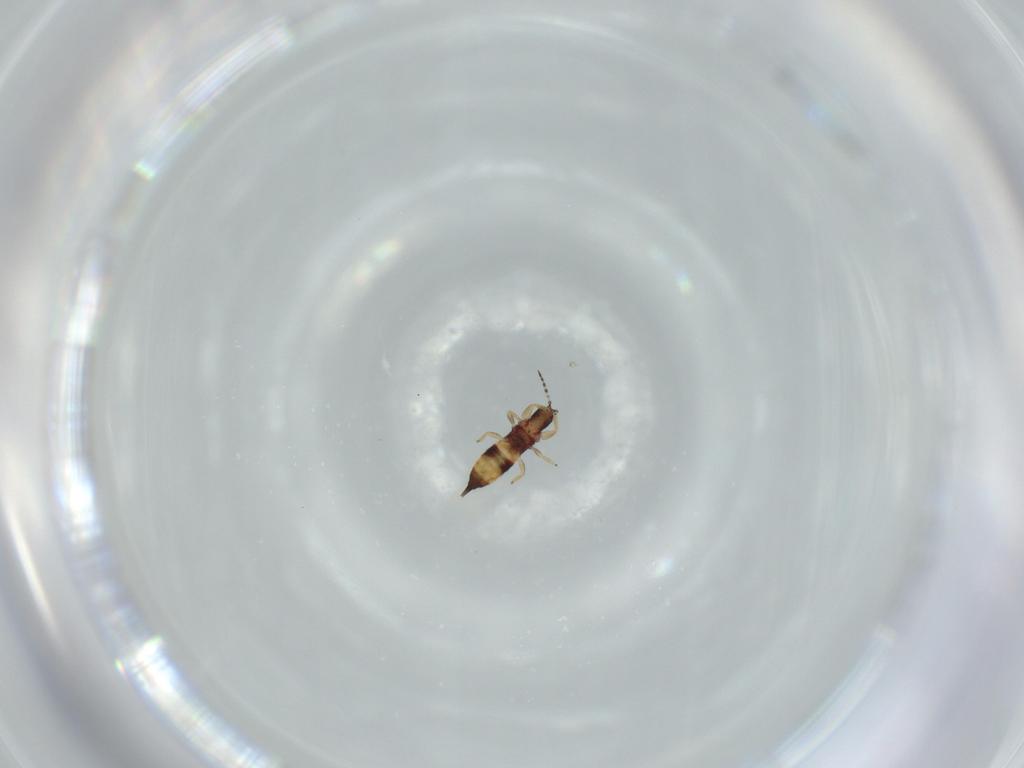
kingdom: Animalia
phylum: Arthropoda
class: Insecta
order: Thysanoptera
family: Phlaeothripidae
